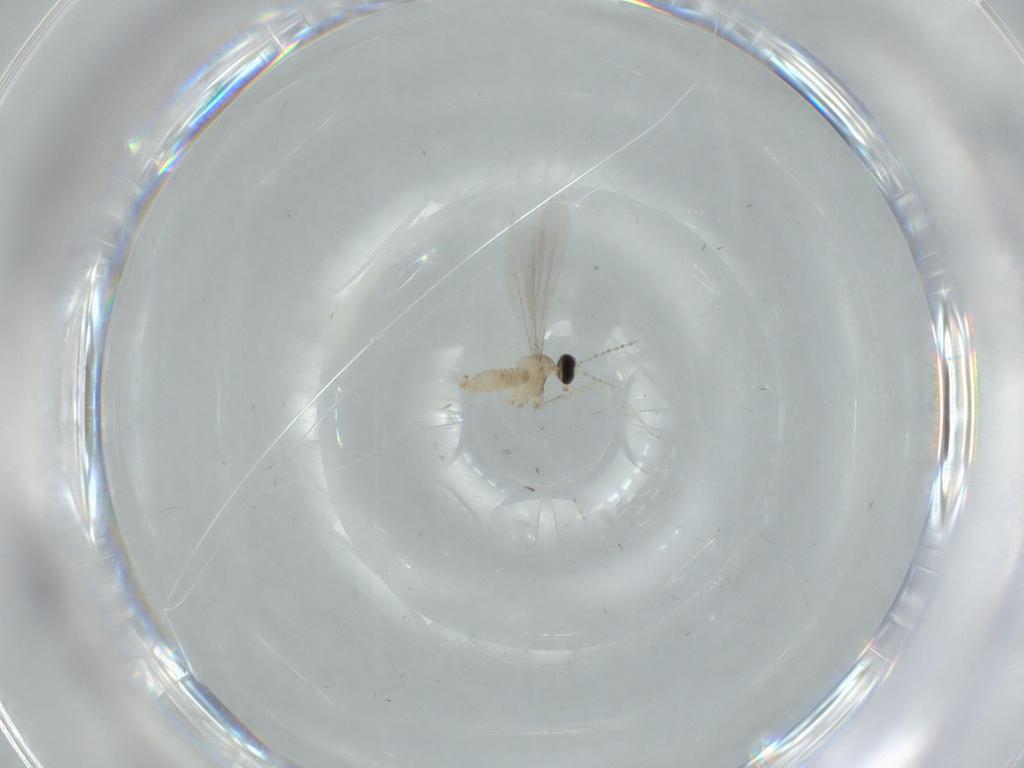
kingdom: Animalia
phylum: Arthropoda
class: Insecta
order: Diptera
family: Cecidomyiidae
